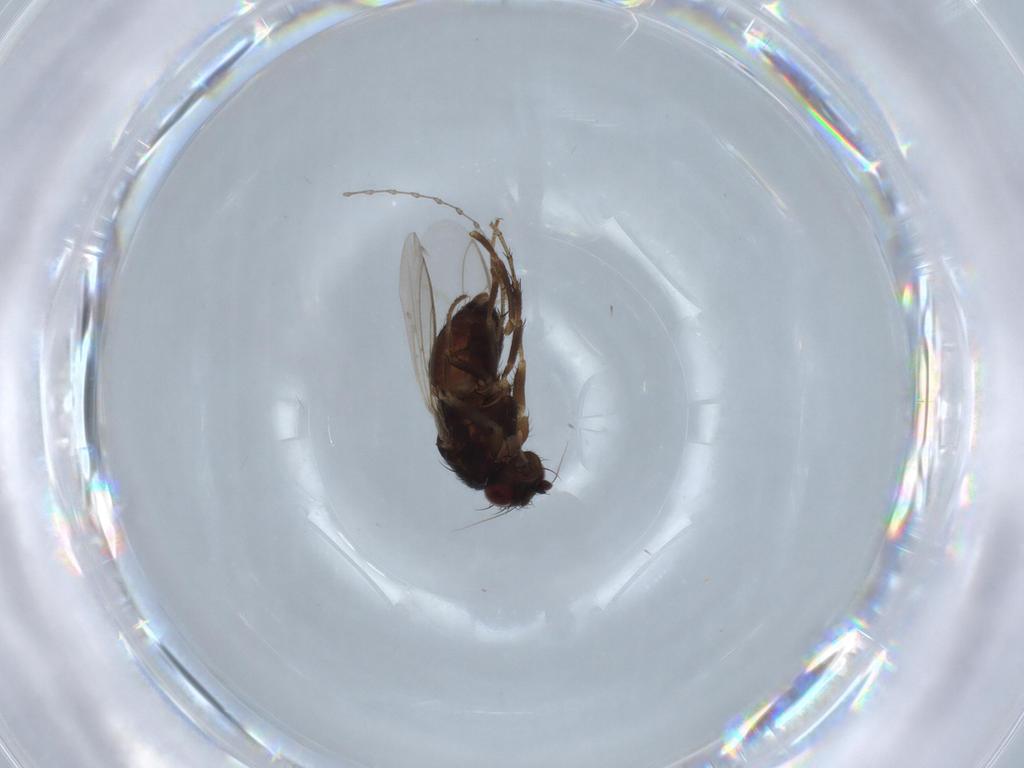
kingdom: Animalia
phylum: Arthropoda
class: Insecta
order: Diptera
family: Sphaeroceridae
